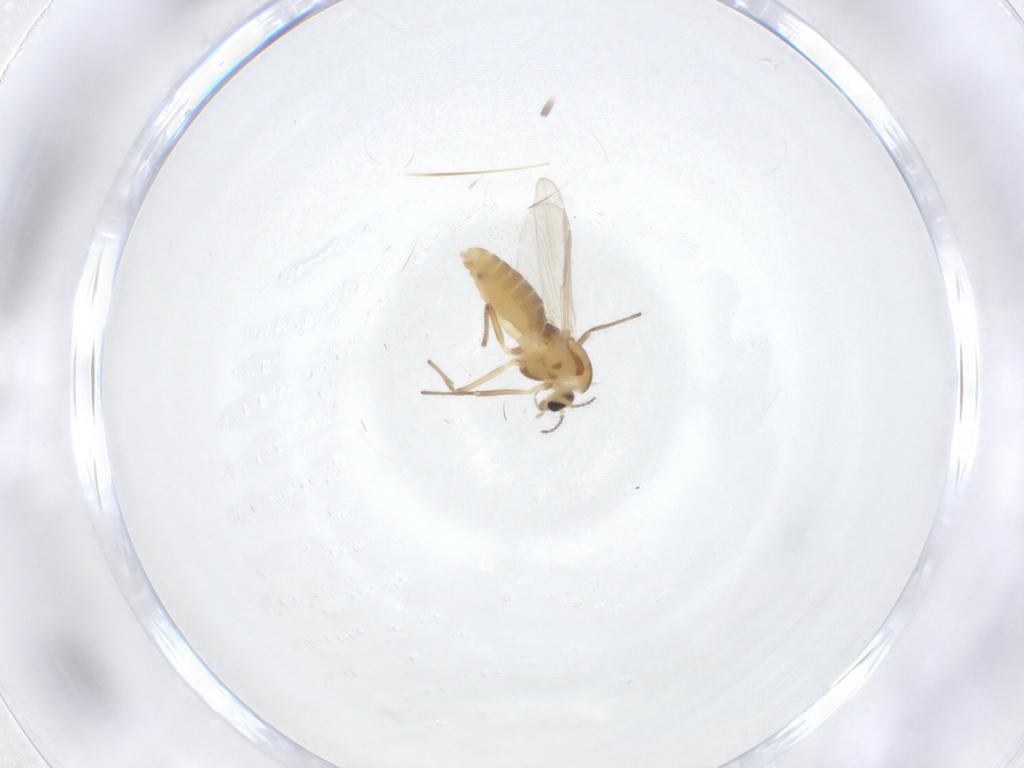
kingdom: Animalia
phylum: Arthropoda
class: Insecta
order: Diptera
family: Chironomidae
